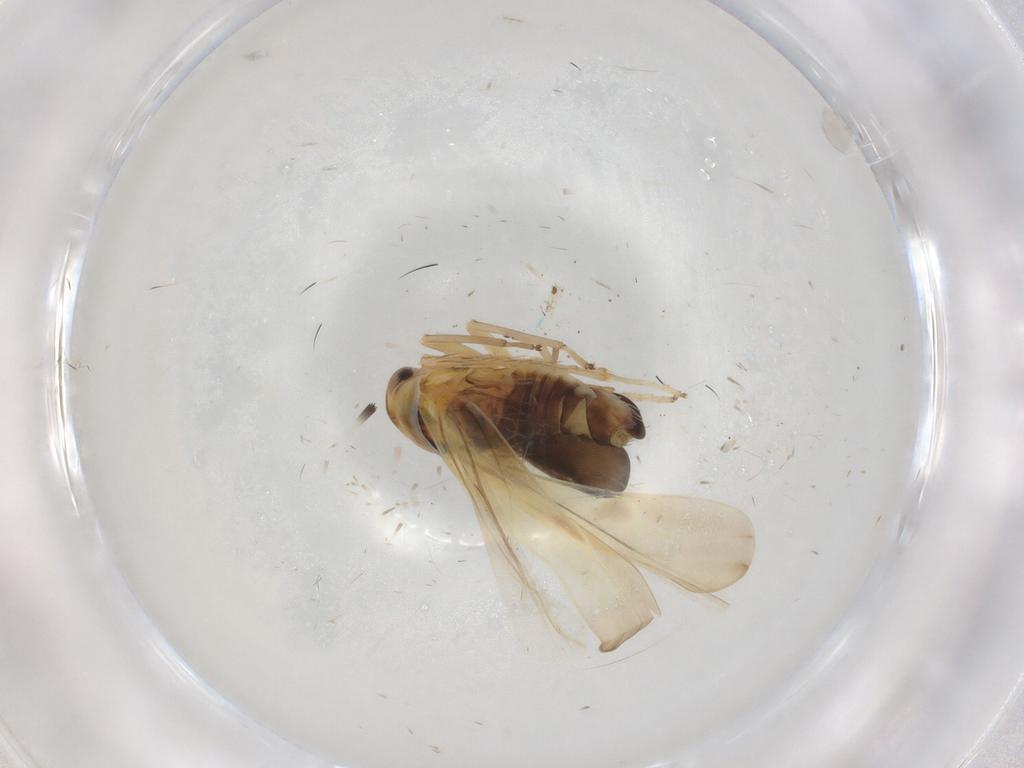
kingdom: Animalia
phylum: Arthropoda
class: Insecta
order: Hemiptera
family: Cicadellidae
